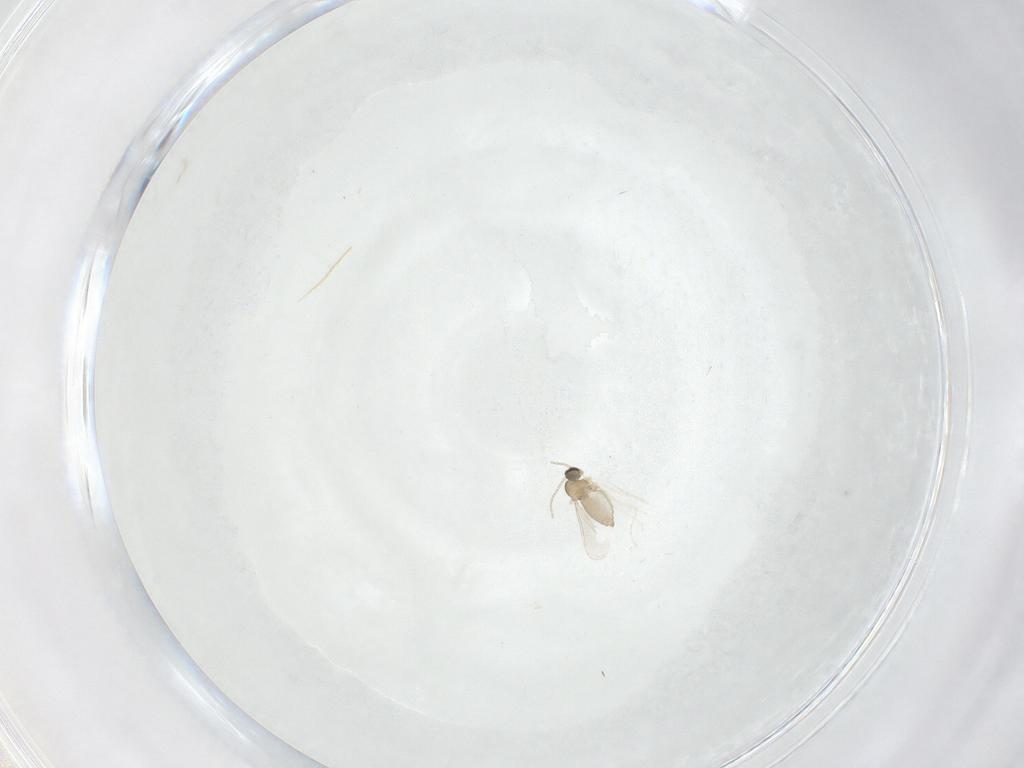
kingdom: Animalia
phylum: Arthropoda
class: Insecta
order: Diptera
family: Cecidomyiidae
